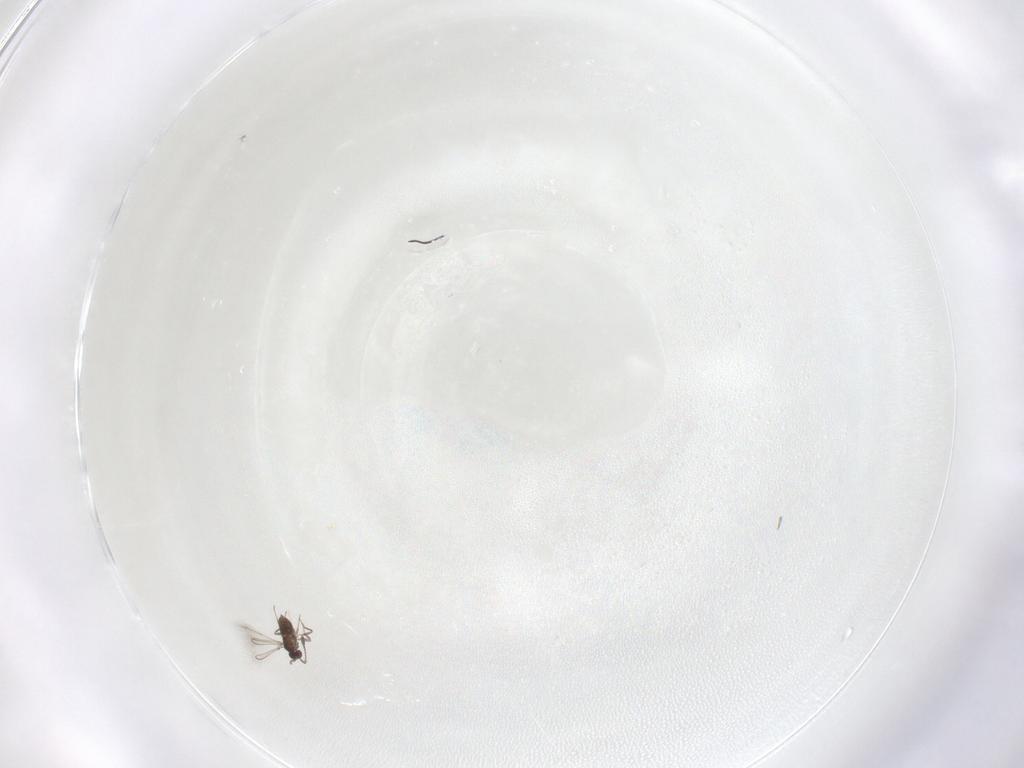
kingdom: Animalia
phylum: Arthropoda
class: Insecta
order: Hymenoptera
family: Mymaridae
